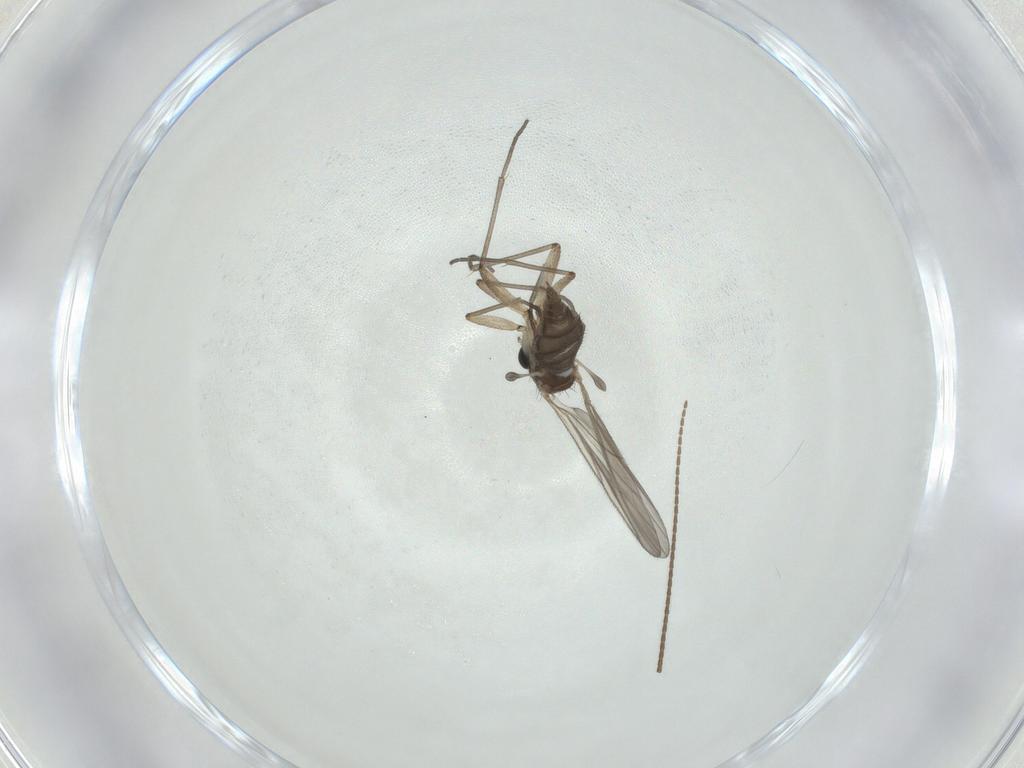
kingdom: Animalia
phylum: Arthropoda
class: Insecta
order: Diptera
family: Sciaridae
